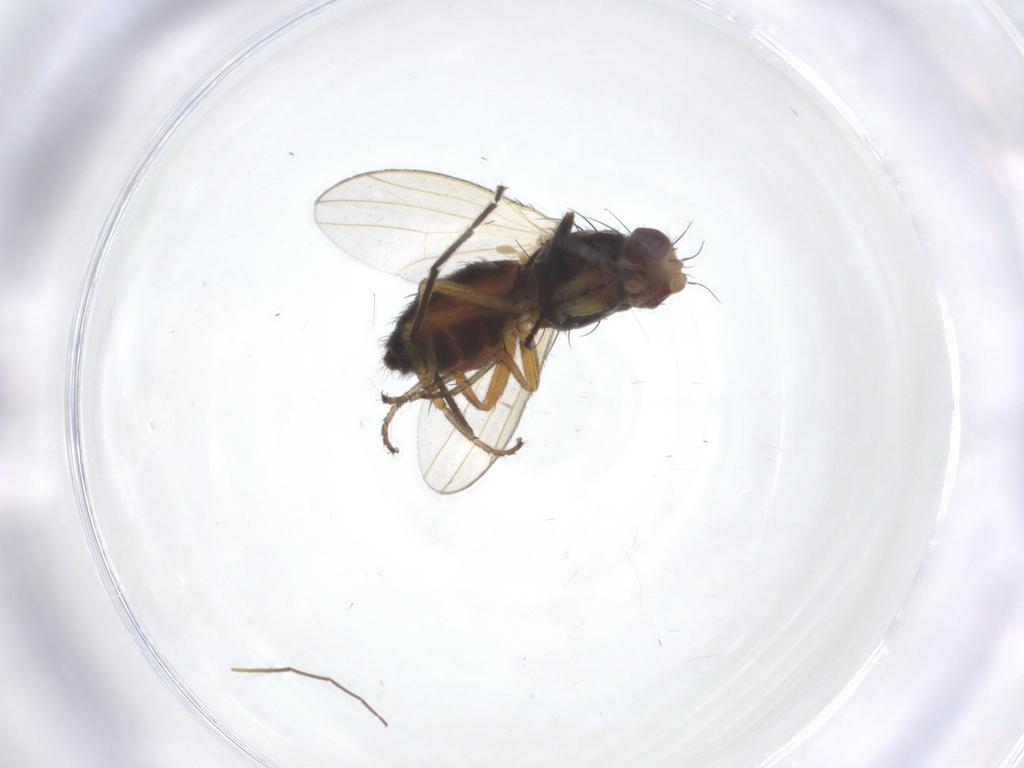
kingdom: Animalia
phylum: Arthropoda
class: Insecta
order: Diptera
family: Heleomyzidae
